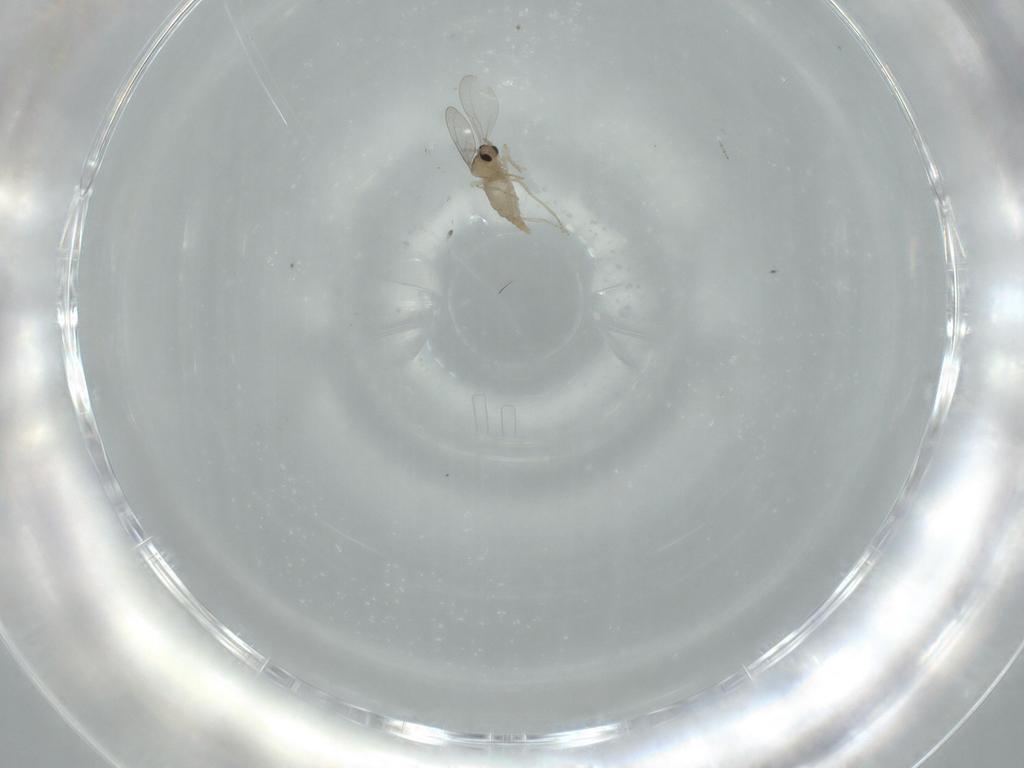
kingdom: Animalia
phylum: Arthropoda
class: Insecta
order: Diptera
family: Cecidomyiidae
